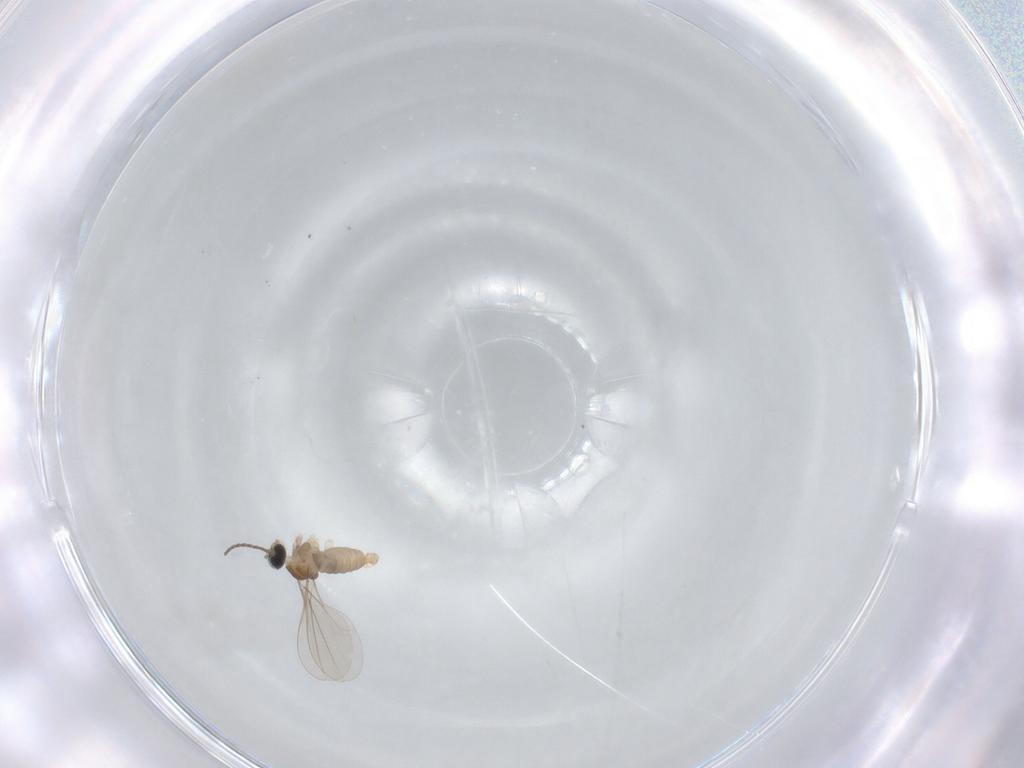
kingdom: Animalia
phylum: Arthropoda
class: Insecta
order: Diptera
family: Cecidomyiidae
